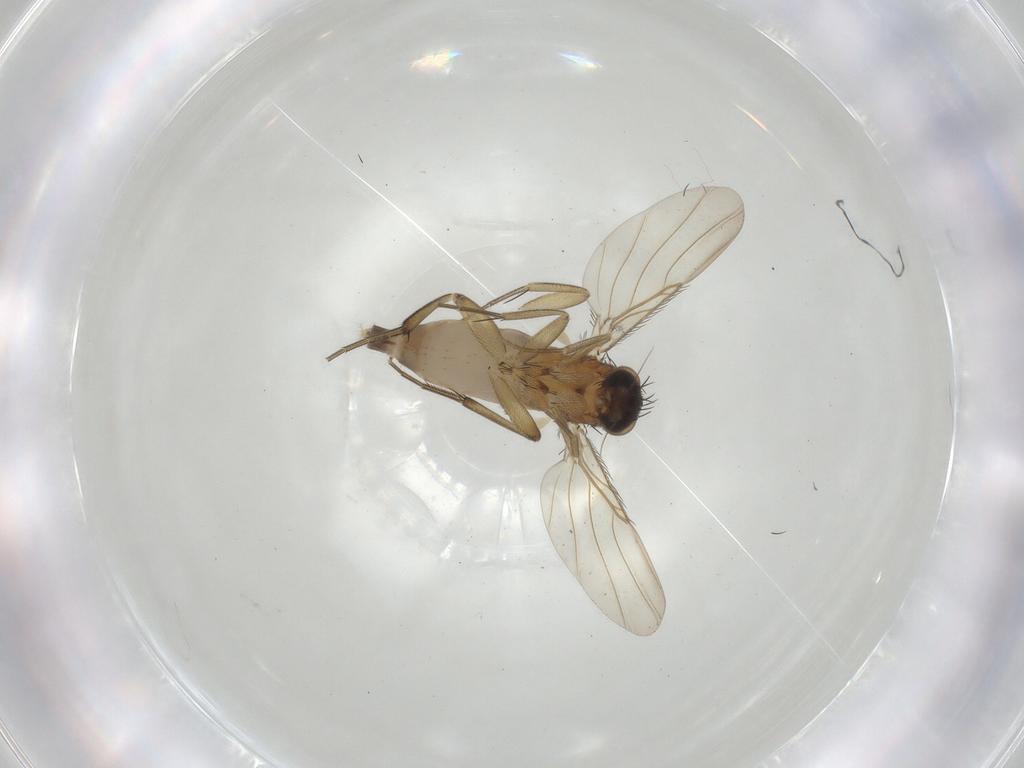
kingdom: Animalia
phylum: Arthropoda
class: Insecta
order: Diptera
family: Phoridae
